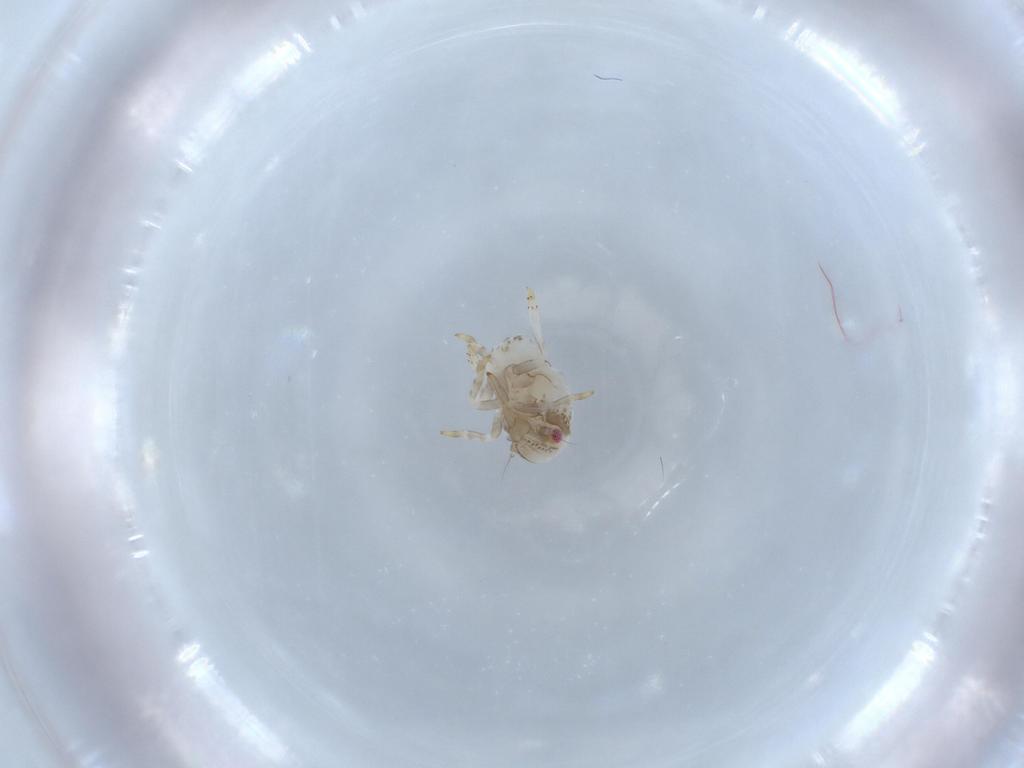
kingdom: Animalia
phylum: Arthropoda
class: Insecta
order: Hemiptera
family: Acanaloniidae
